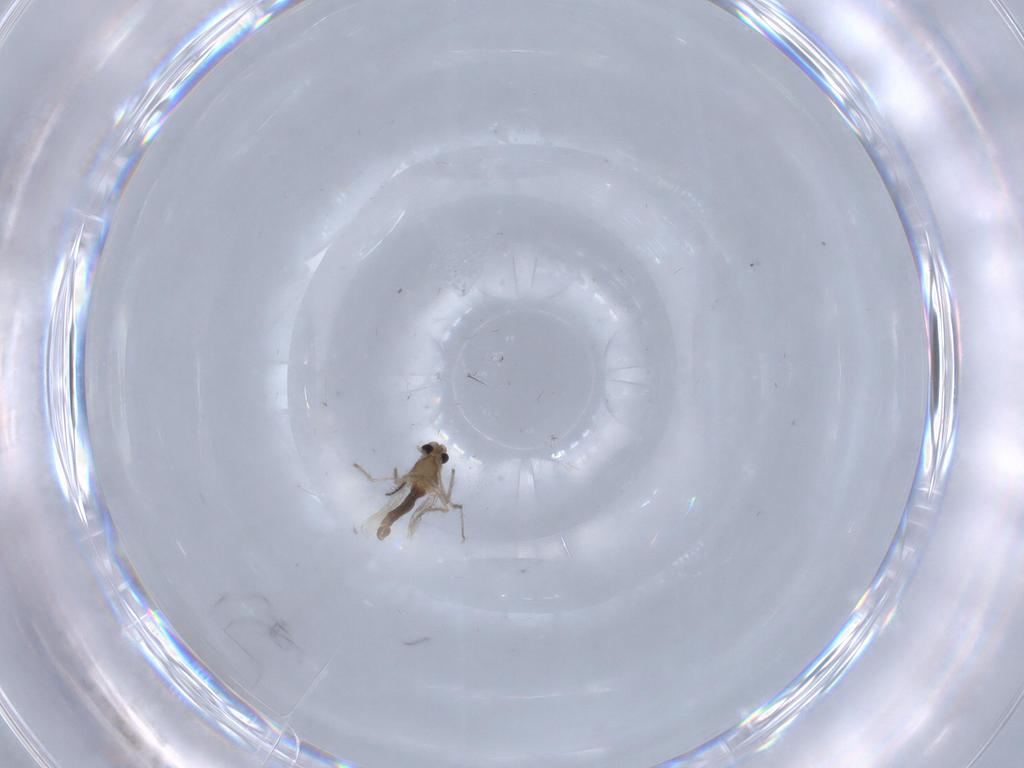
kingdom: Animalia
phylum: Arthropoda
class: Insecta
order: Diptera
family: Chironomidae
